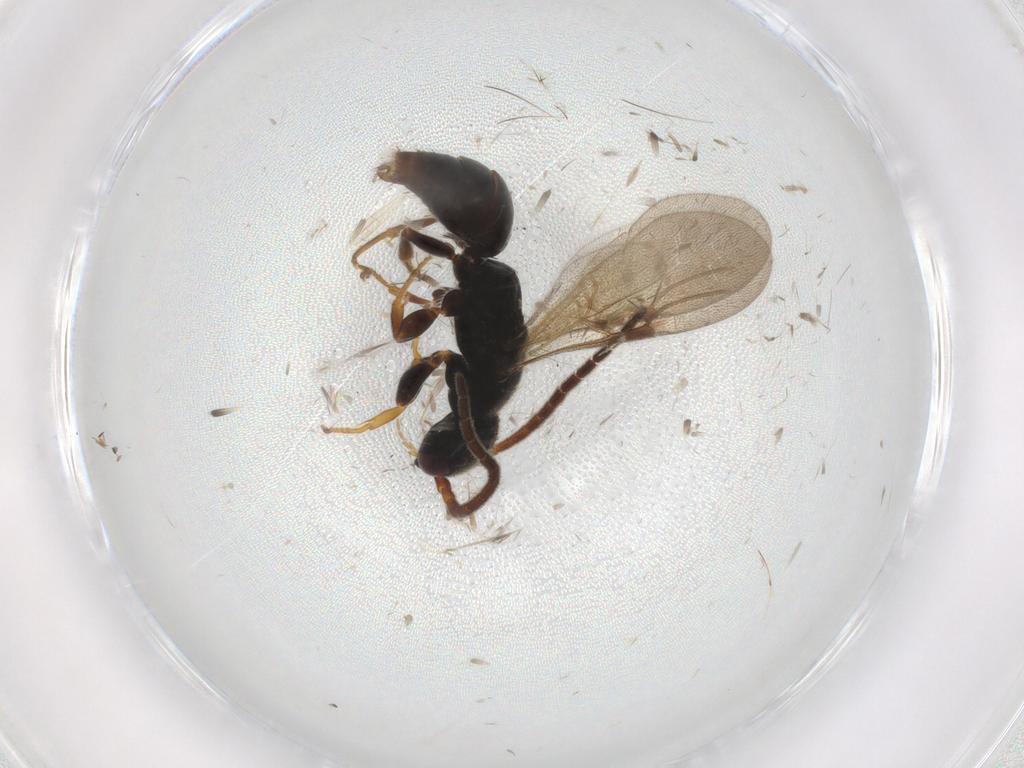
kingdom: Animalia
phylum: Arthropoda
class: Insecta
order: Hymenoptera
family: Bethylidae
